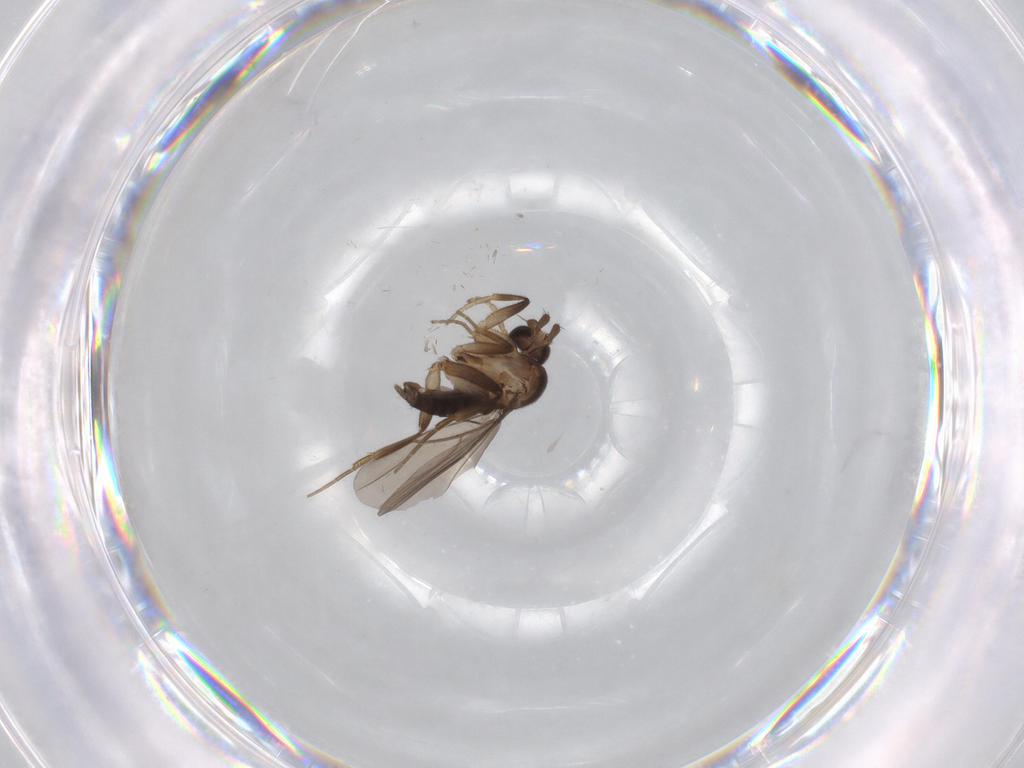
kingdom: Animalia
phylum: Arthropoda
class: Insecta
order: Diptera
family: Phoridae
